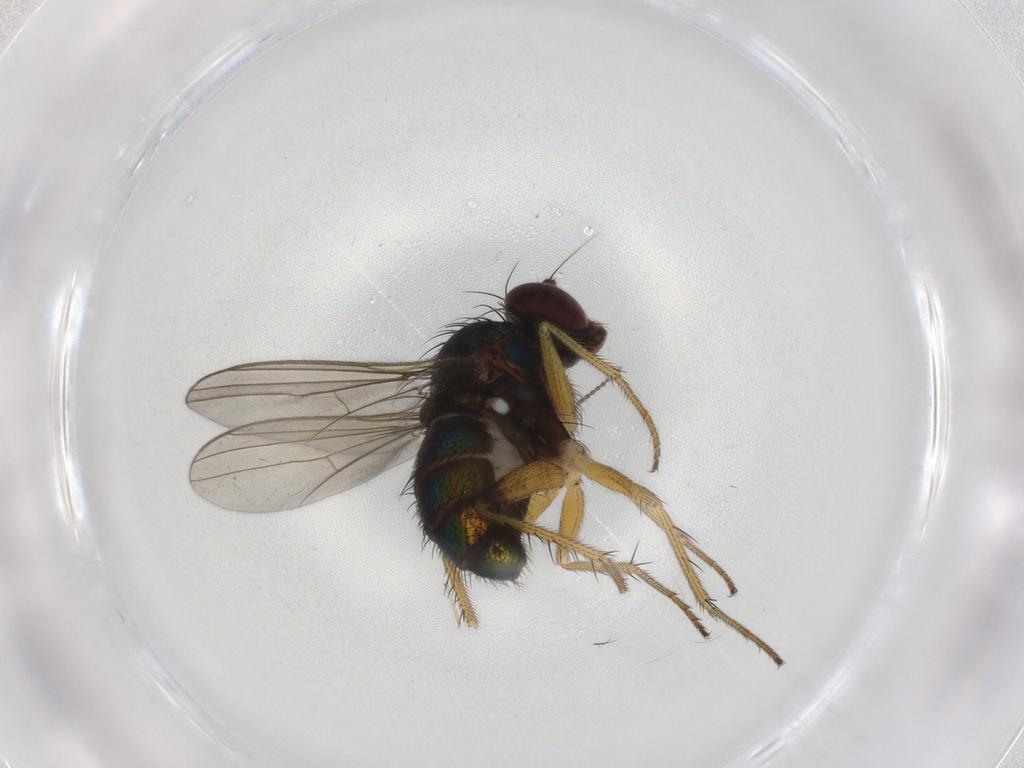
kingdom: Animalia
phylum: Arthropoda
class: Insecta
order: Diptera
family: Dolichopodidae
